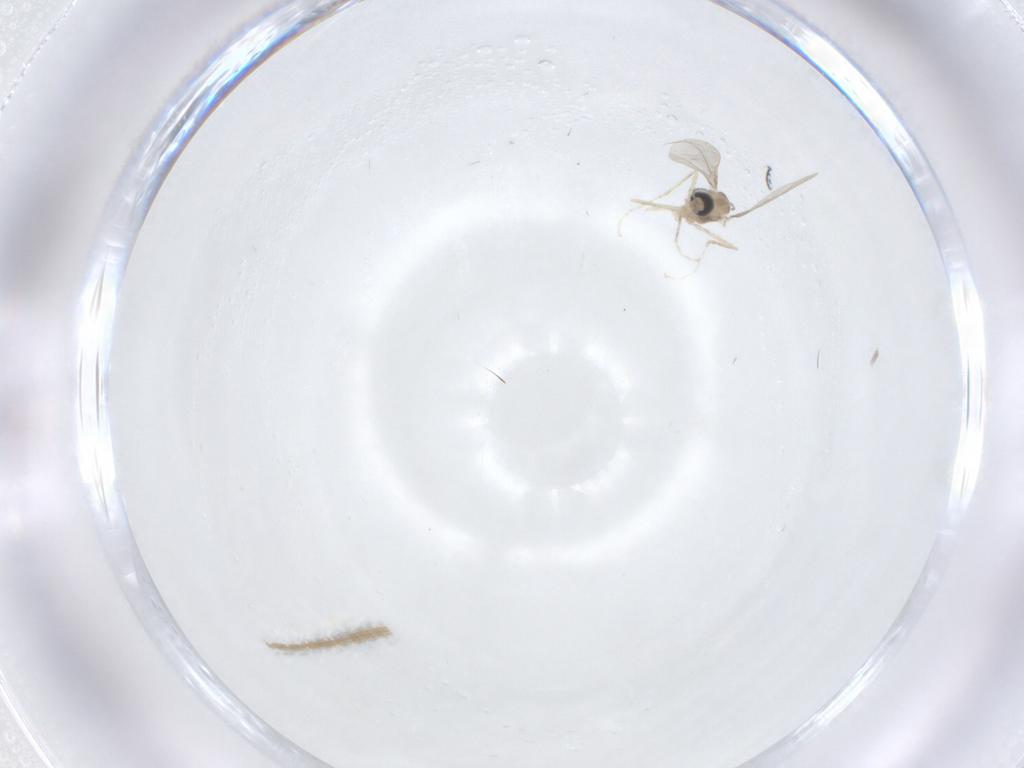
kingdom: Animalia
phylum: Arthropoda
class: Insecta
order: Diptera
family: Cecidomyiidae
